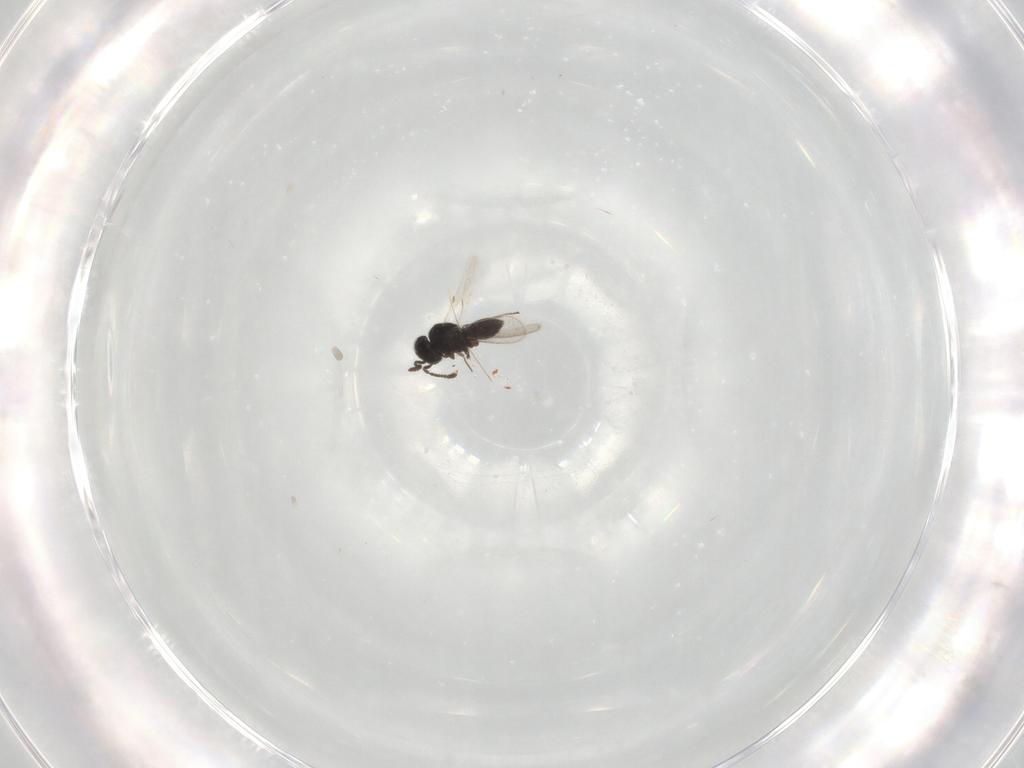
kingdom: Animalia
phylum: Arthropoda
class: Insecta
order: Hymenoptera
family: Scelionidae
